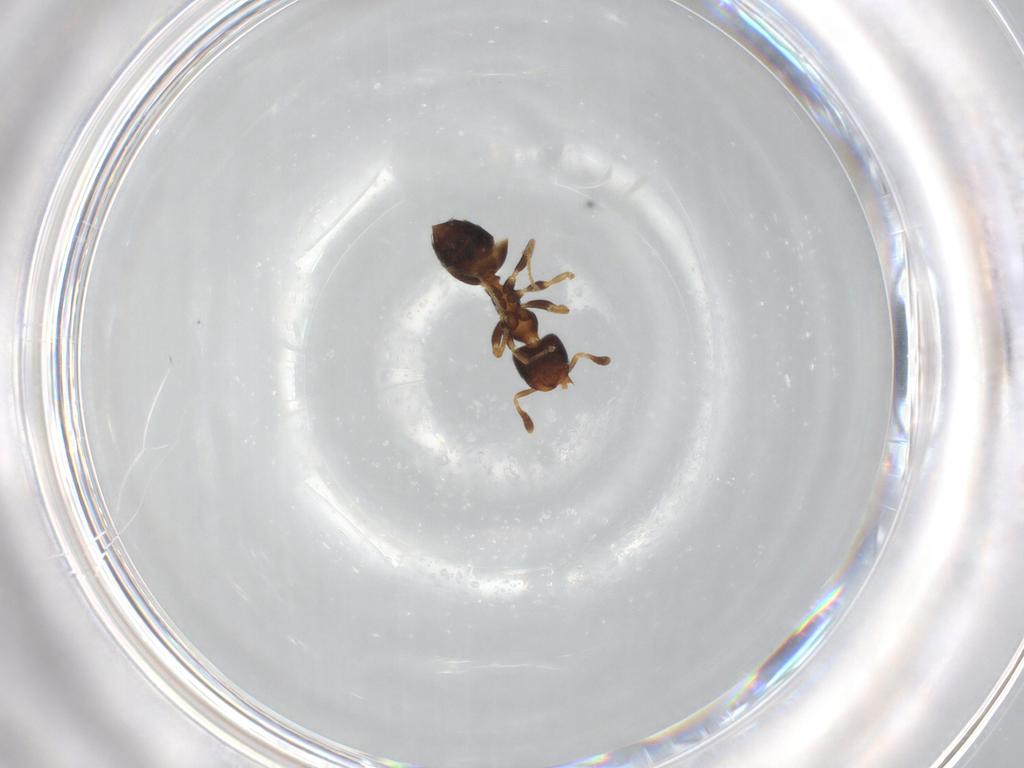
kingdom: Animalia
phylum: Arthropoda
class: Insecta
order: Hymenoptera
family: Formicidae
